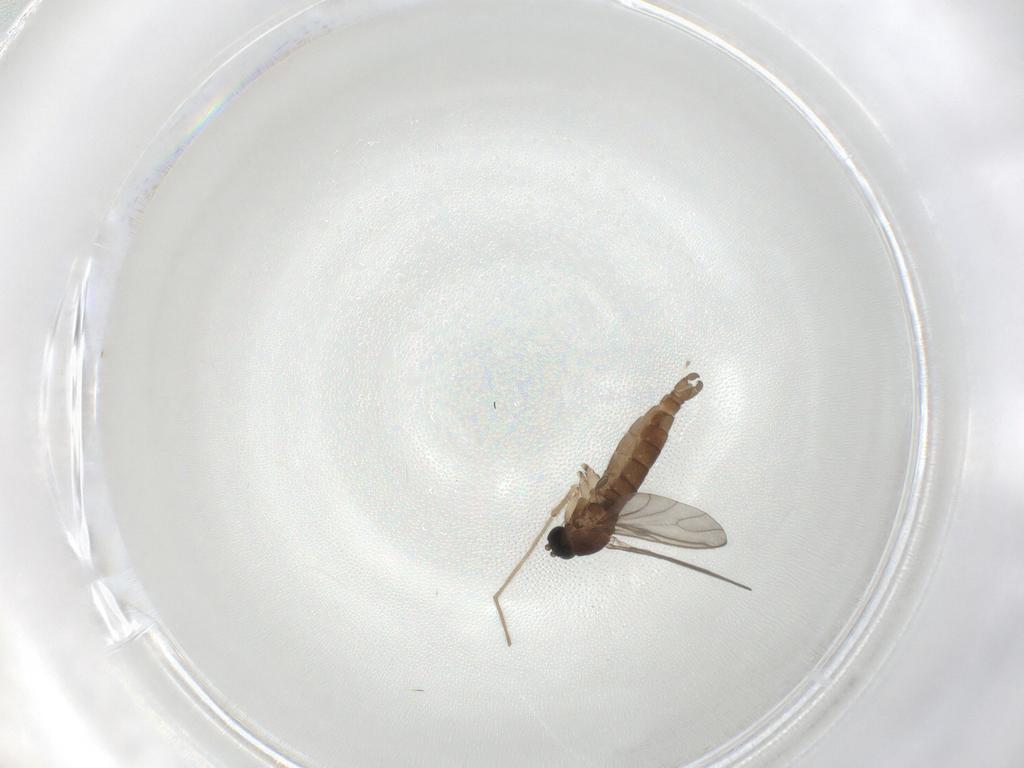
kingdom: Animalia
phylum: Arthropoda
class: Insecta
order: Diptera
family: Sciaridae
